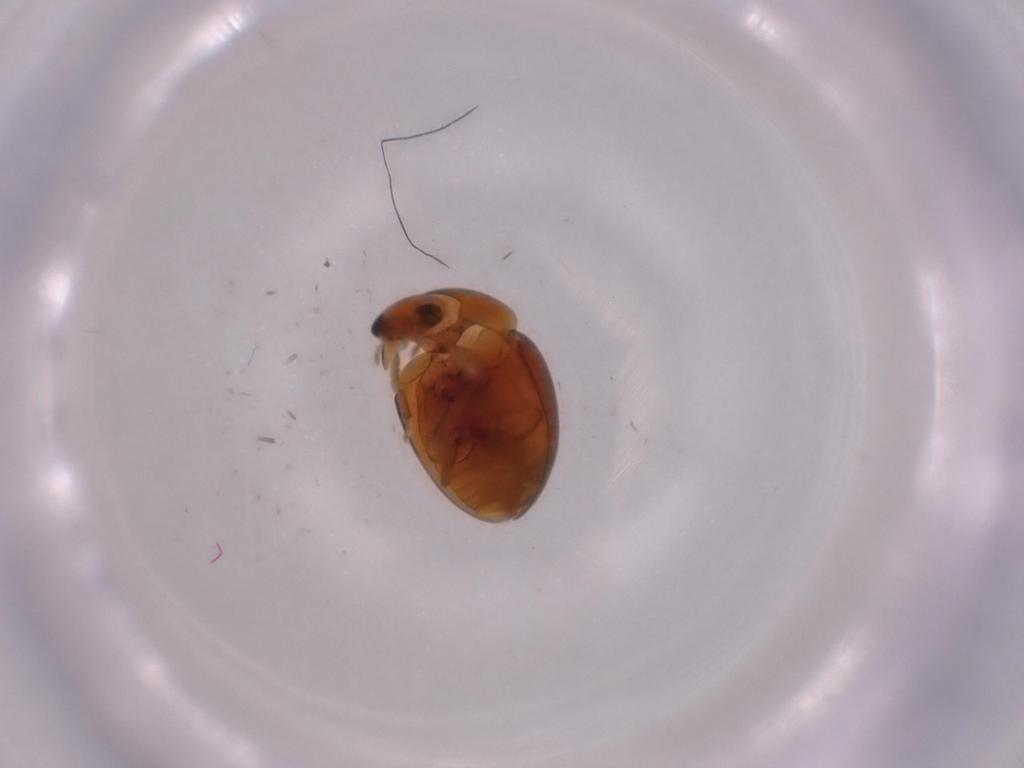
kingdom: Animalia
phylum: Arthropoda
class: Insecta
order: Coleoptera
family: Phalacridae
